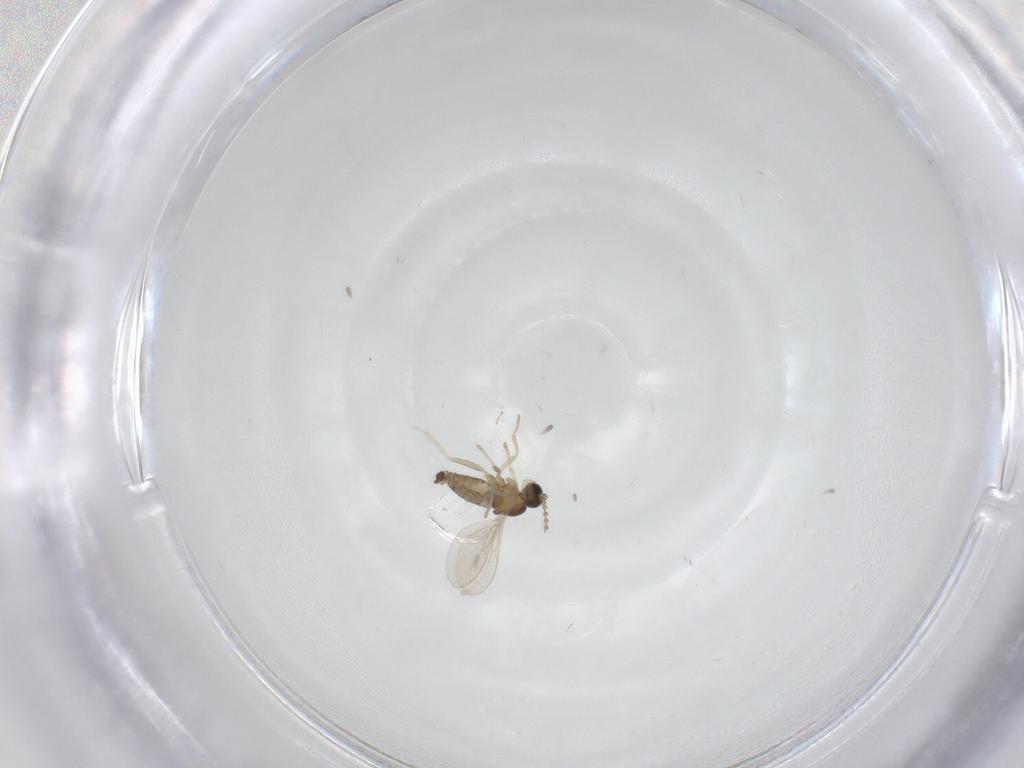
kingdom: Animalia
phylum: Arthropoda
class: Insecta
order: Diptera
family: Cecidomyiidae
